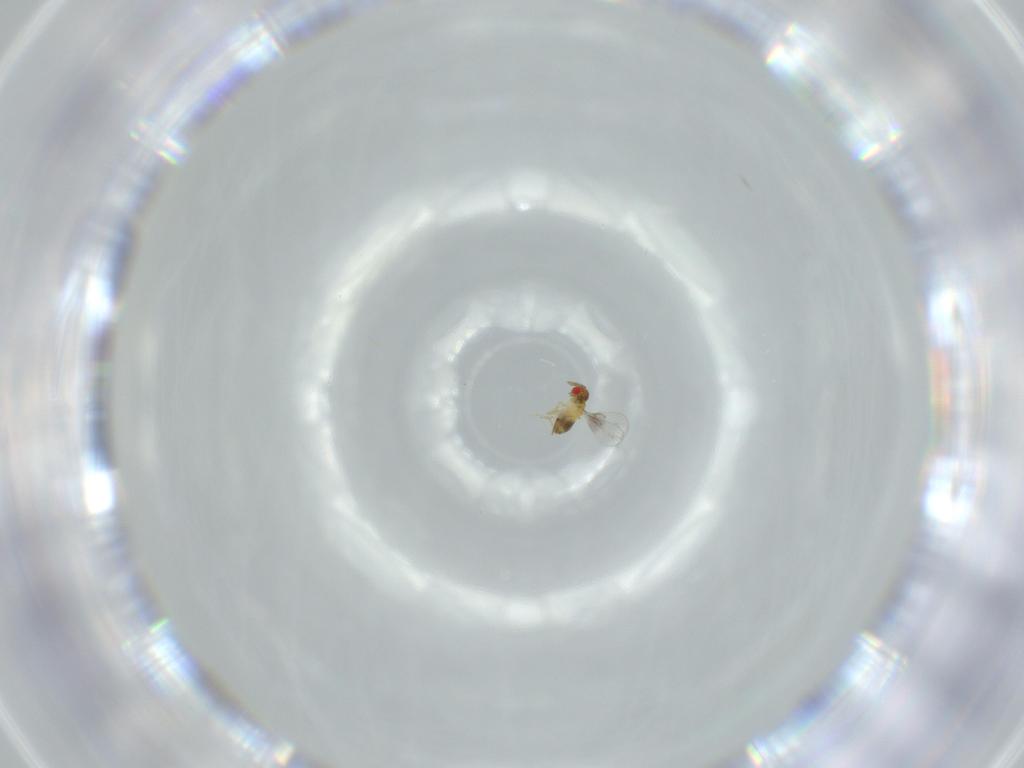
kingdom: Animalia
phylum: Arthropoda
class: Insecta
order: Hymenoptera
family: Trichogrammatidae
